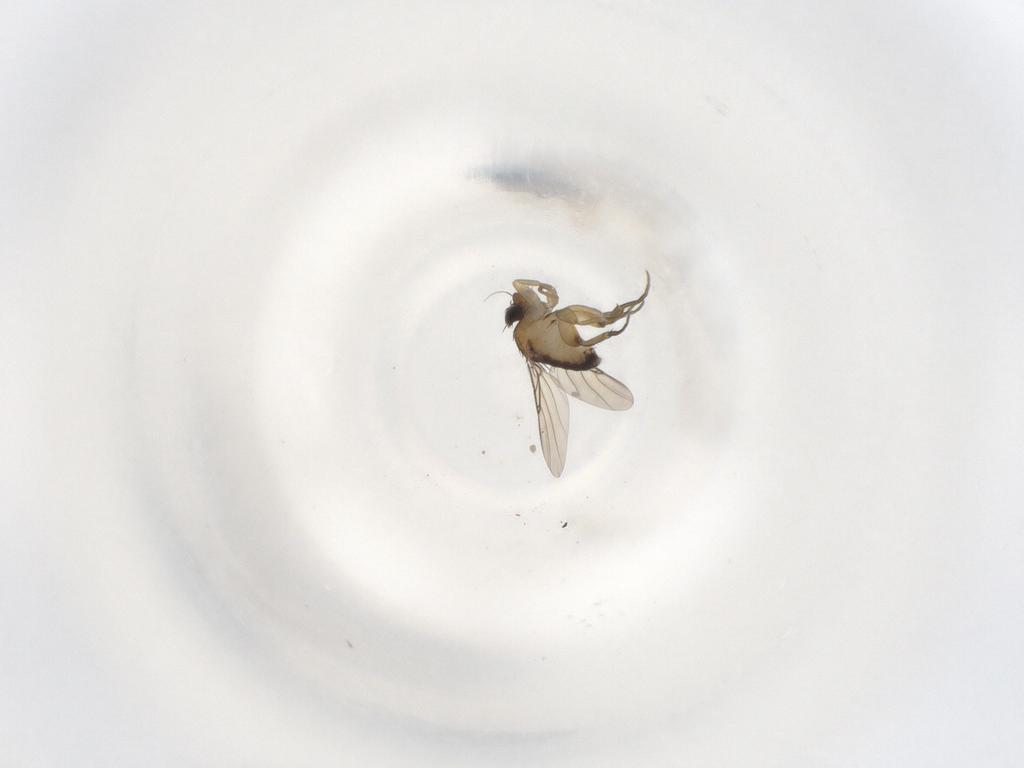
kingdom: Animalia
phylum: Arthropoda
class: Insecta
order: Diptera
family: Phoridae
